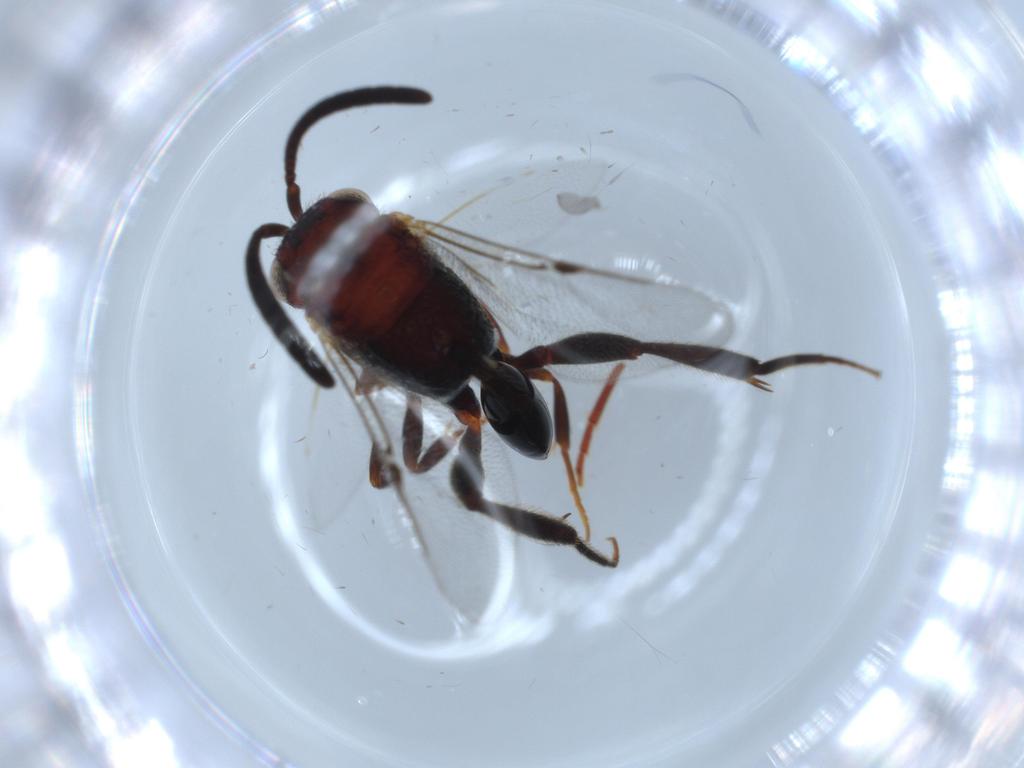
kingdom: Animalia
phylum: Arthropoda
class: Insecta
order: Hymenoptera
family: Evaniidae
